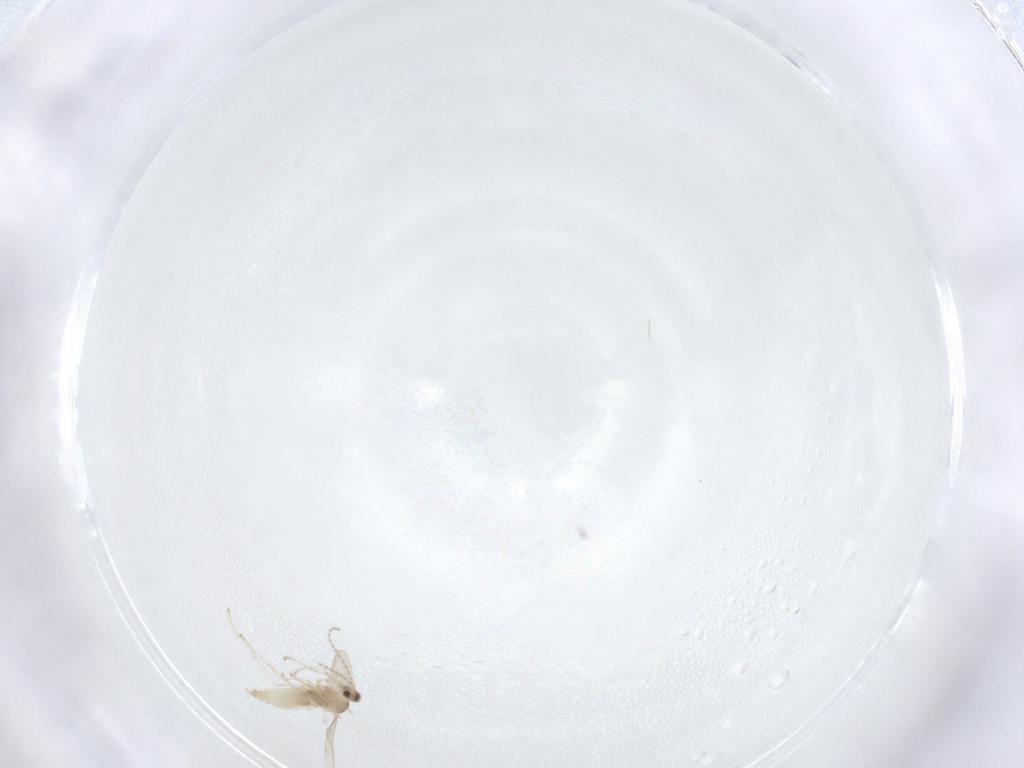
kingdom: Animalia
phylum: Arthropoda
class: Insecta
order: Diptera
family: Cecidomyiidae
